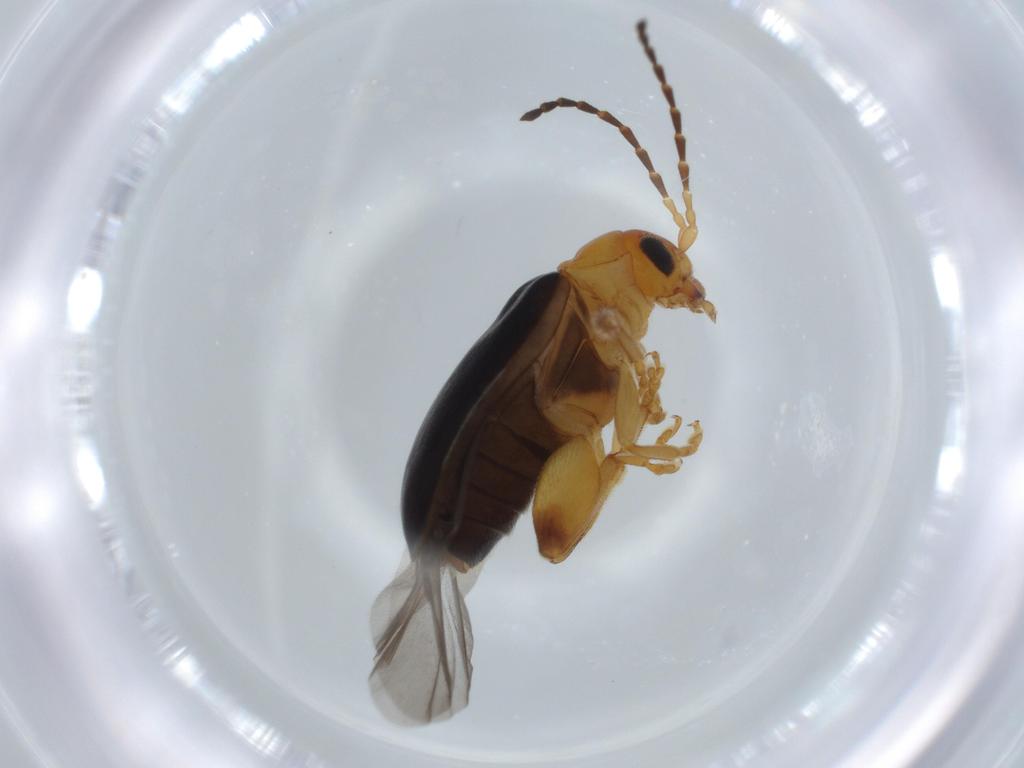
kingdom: Animalia
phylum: Arthropoda
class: Insecta
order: Coleoptera
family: Chrysomelidae
